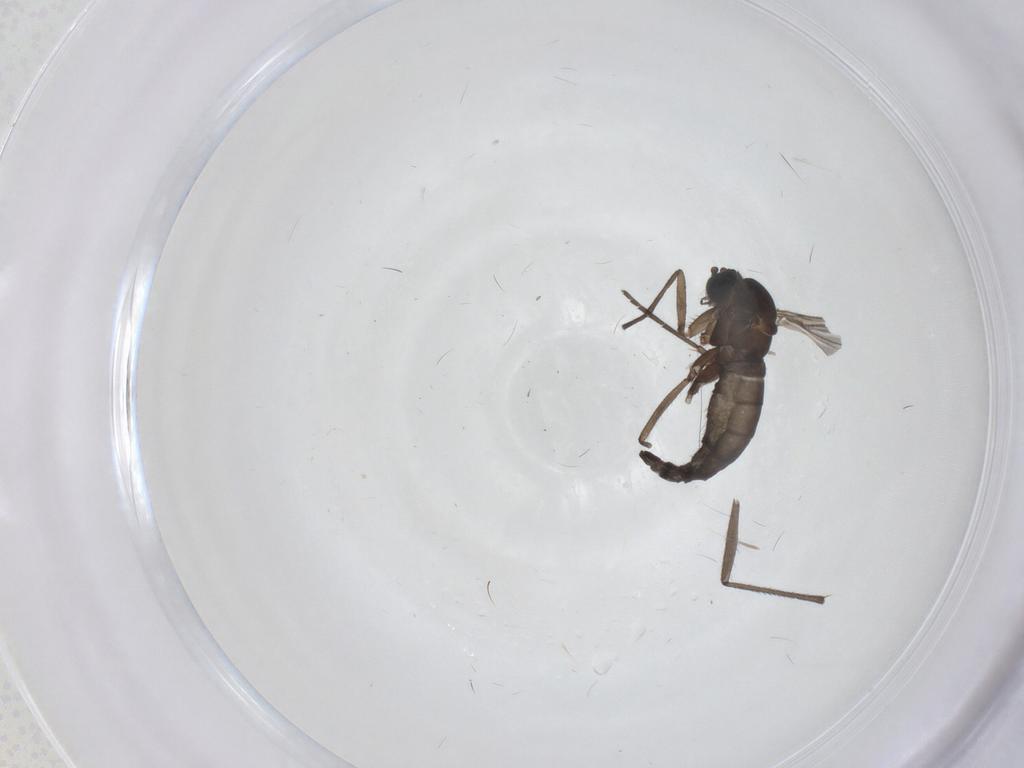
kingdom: Animalia
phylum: Arthropoda
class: Insecta
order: Diptera
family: Sciaridae
